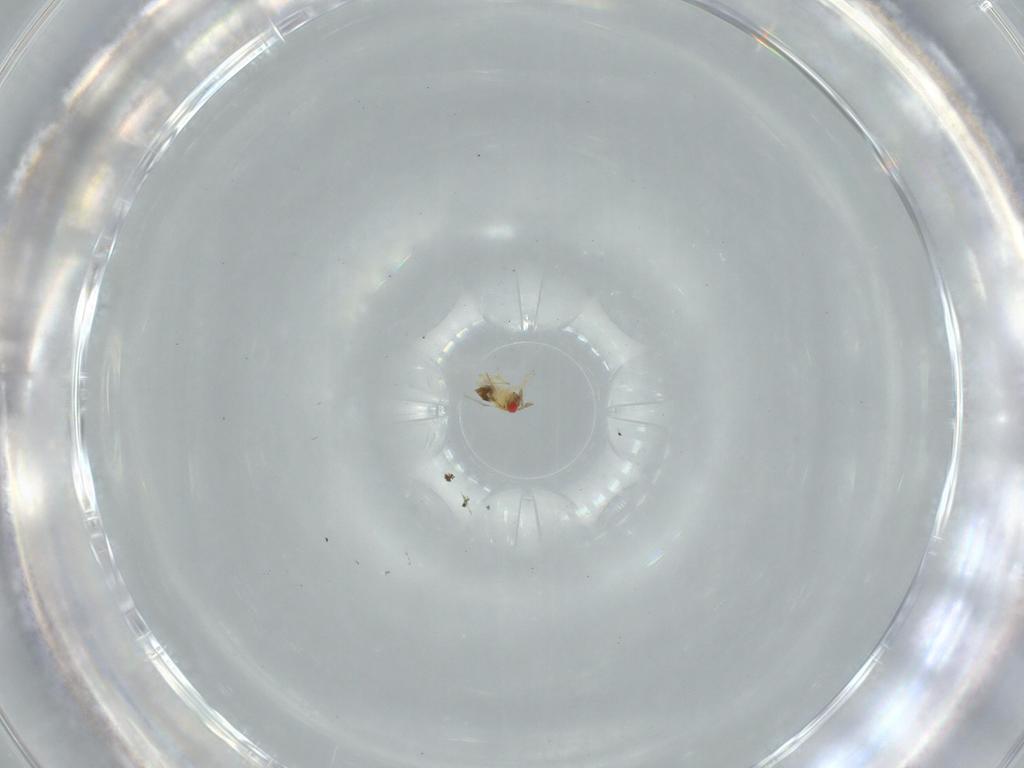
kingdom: Animalia
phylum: Arthropoda
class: Insecta
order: Hymenoptera
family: Trichogrammatidae
